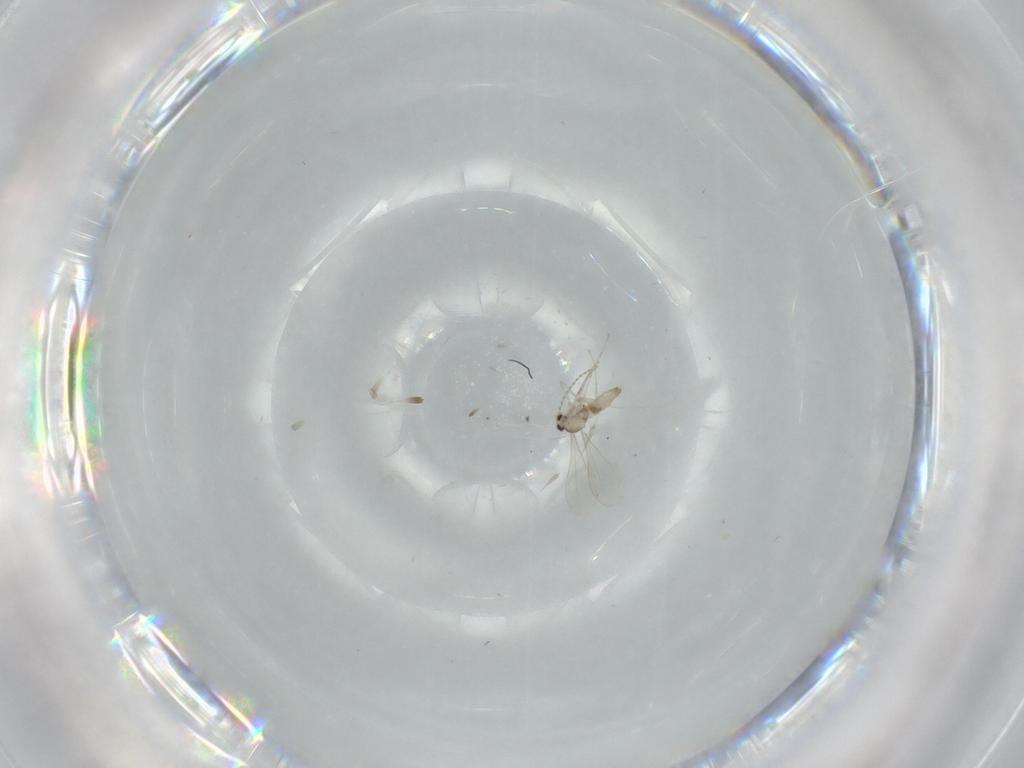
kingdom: Animalia
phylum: Arthropoda
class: Insecta
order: Diptera
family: Cecidomyiidae
